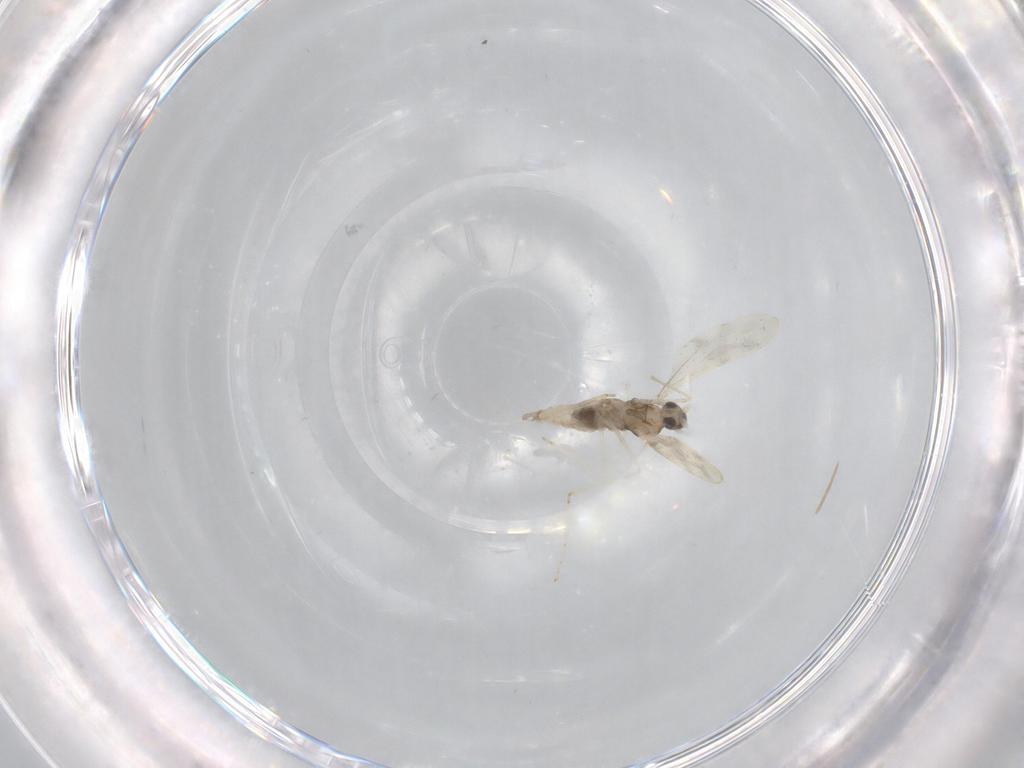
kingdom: Animalia
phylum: Arthropoda
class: Insecta
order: Diptera
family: Cecidomyiidae
